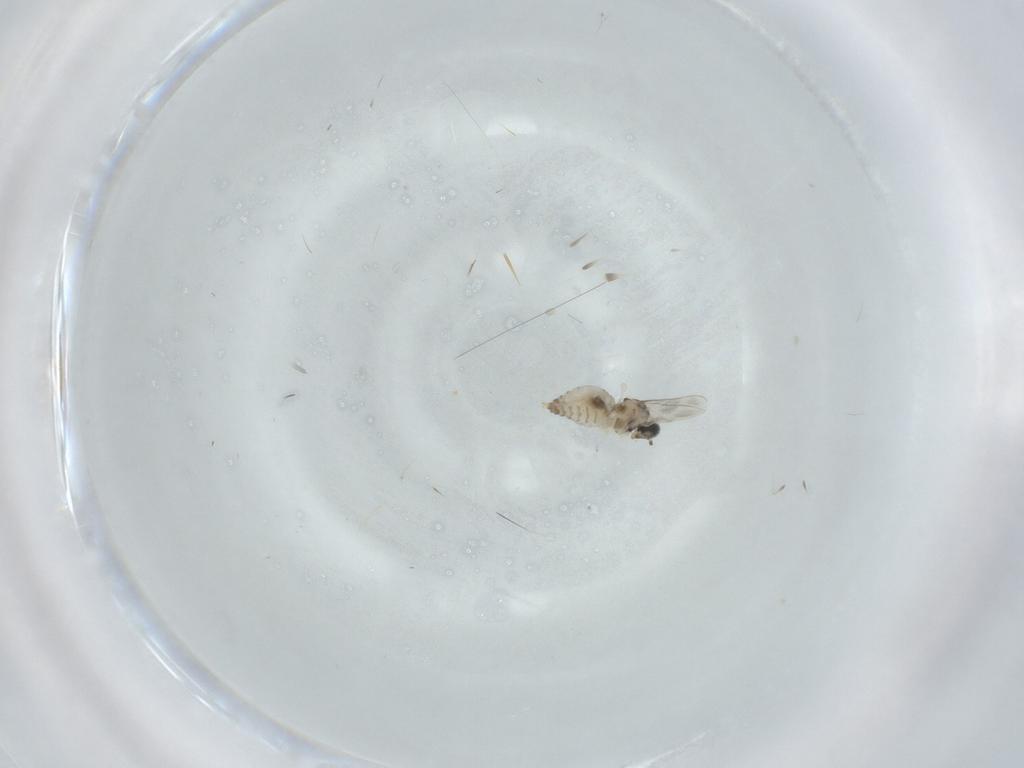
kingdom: Animalia
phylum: Arthropoda
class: Insecta
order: Diptera
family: Cecidomyiidae
